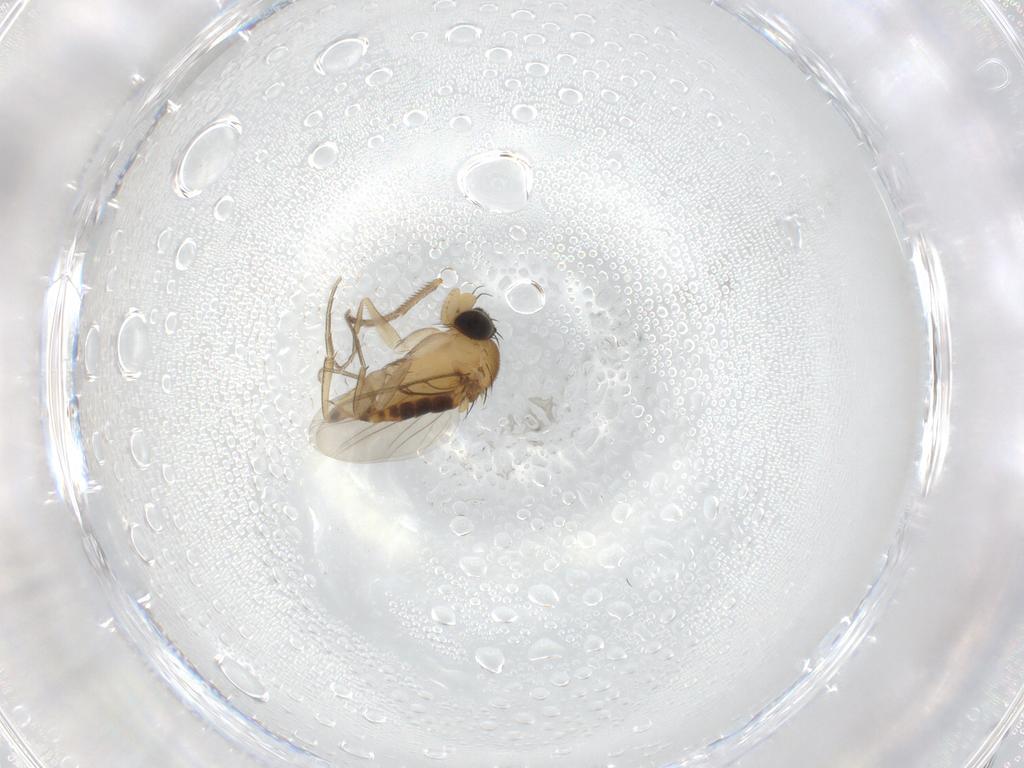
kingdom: Animalia
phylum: Arthropoda
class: Insecta
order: Diptera
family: Phoridae
